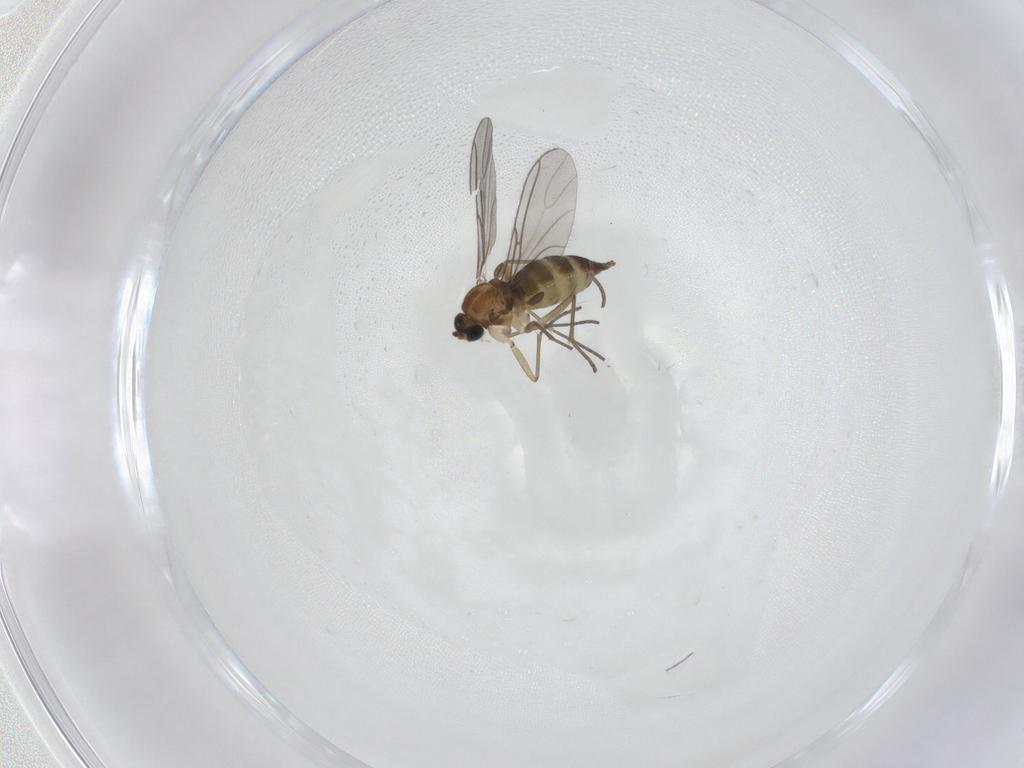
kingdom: Animalia
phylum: Arthropoda
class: Insecta
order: Diptera
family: Sciaridae
